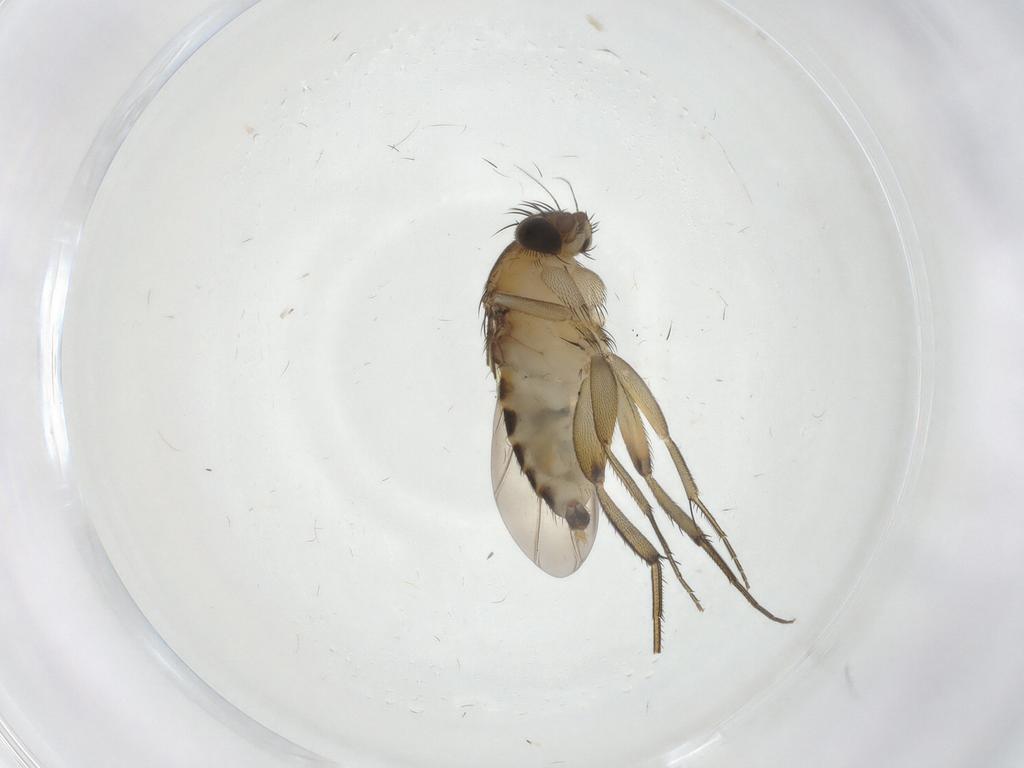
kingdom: Animalia
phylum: Arthropoda
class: Insecta
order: Diptera
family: Phoridae
